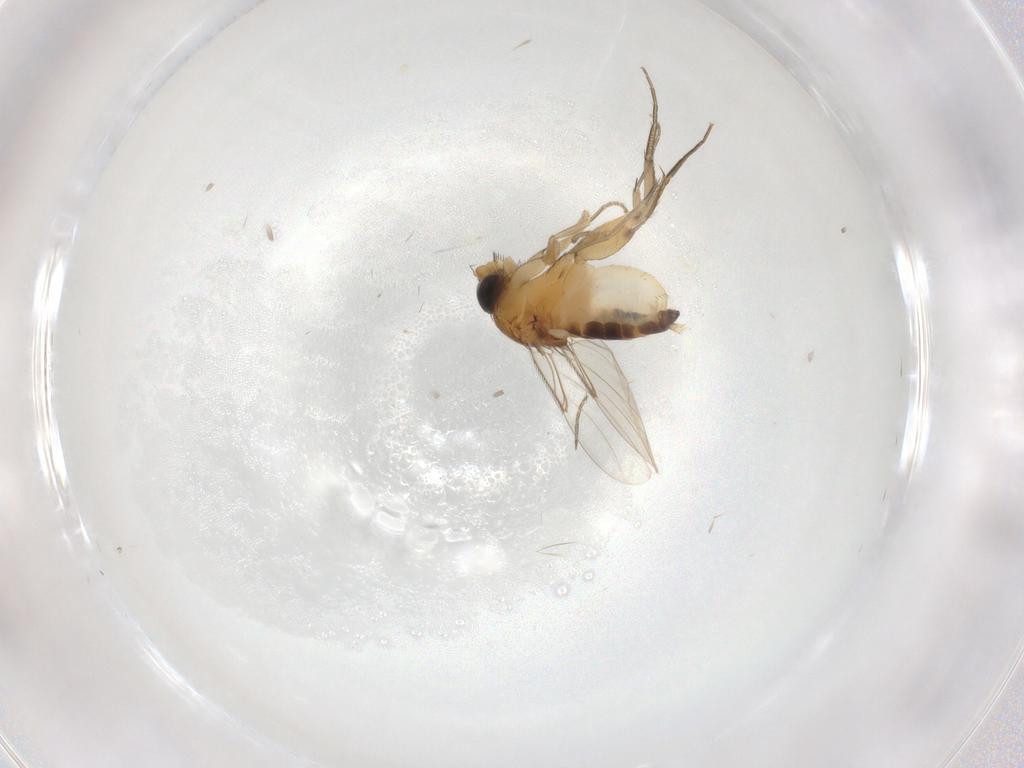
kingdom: Animalia
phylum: Arthropoda
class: Insecta
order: Diptera
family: Phoridae
